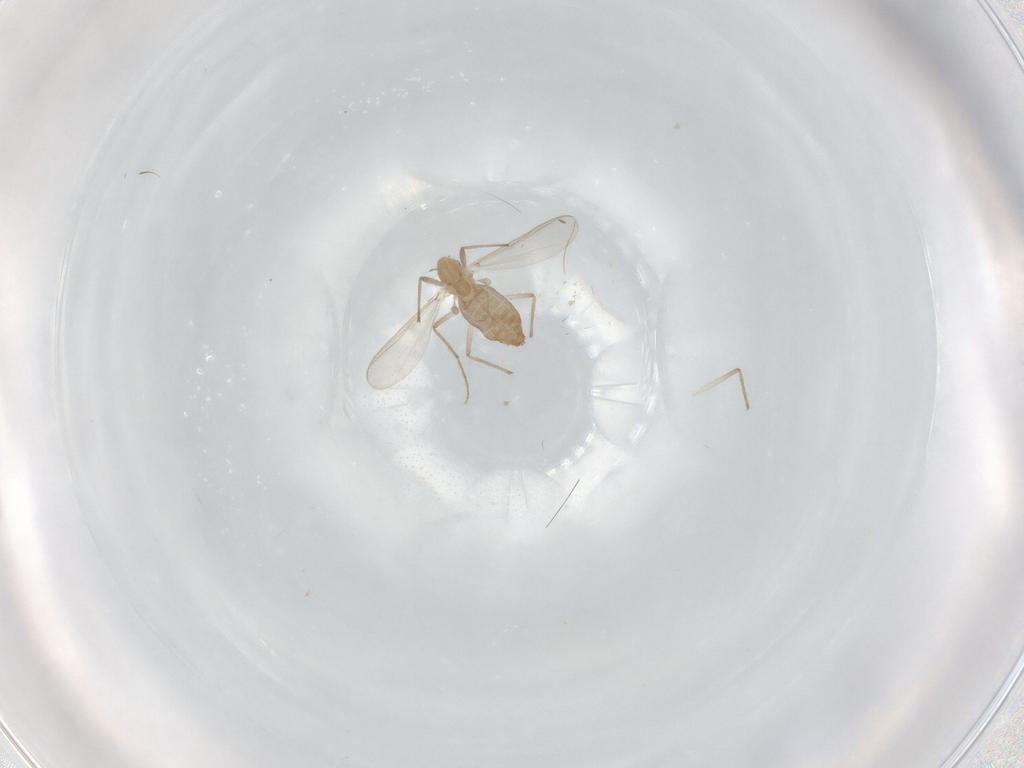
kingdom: Animalia
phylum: Arthropoda
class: Insecta
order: Diptera
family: Chironomidae
